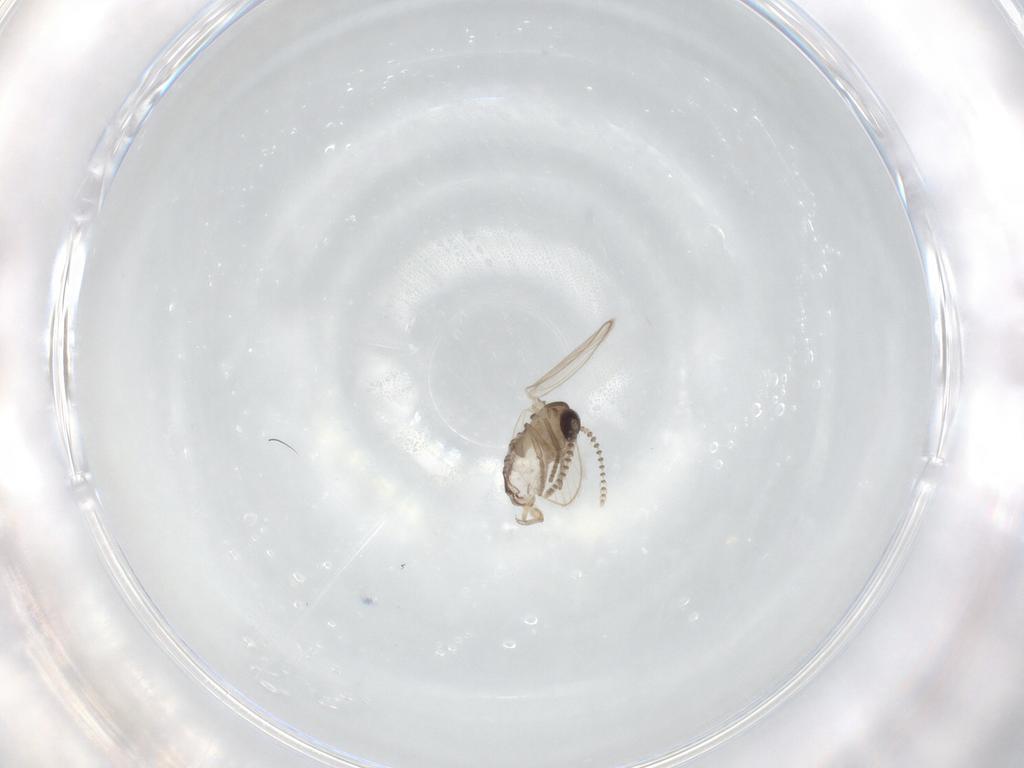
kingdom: Animalia
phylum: Arthropoda
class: Insecta
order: Diptera
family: Psychodidae
